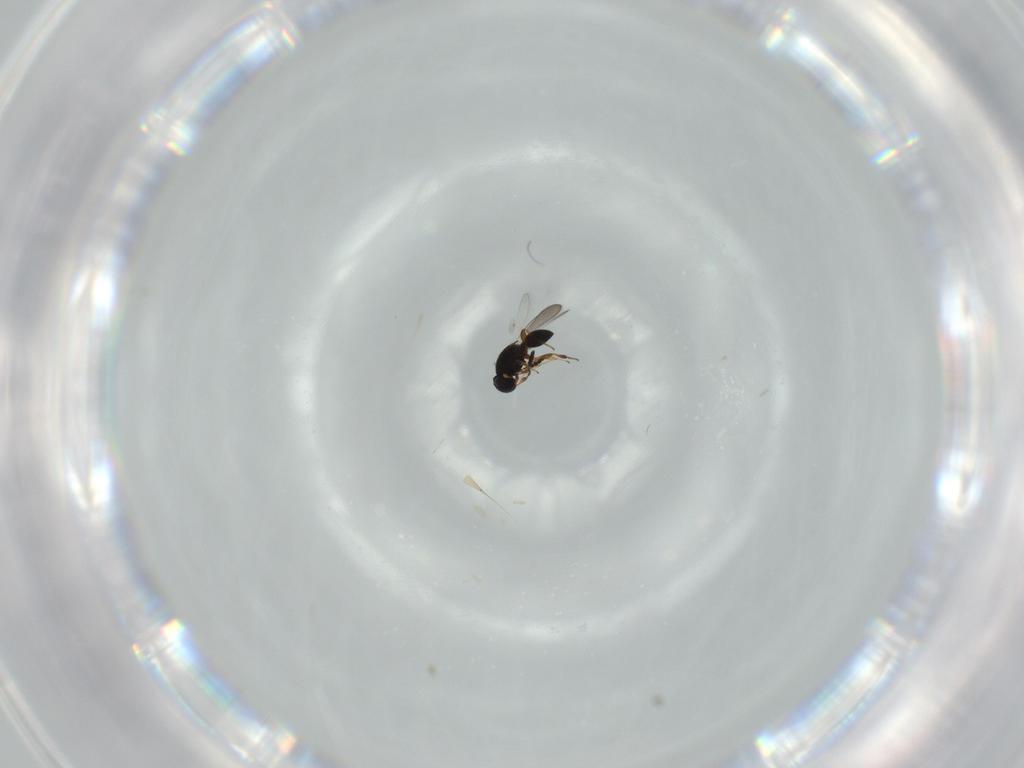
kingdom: Animalia
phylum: Arthropoda
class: Insecta
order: Hymenoptera
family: Platygastridae
